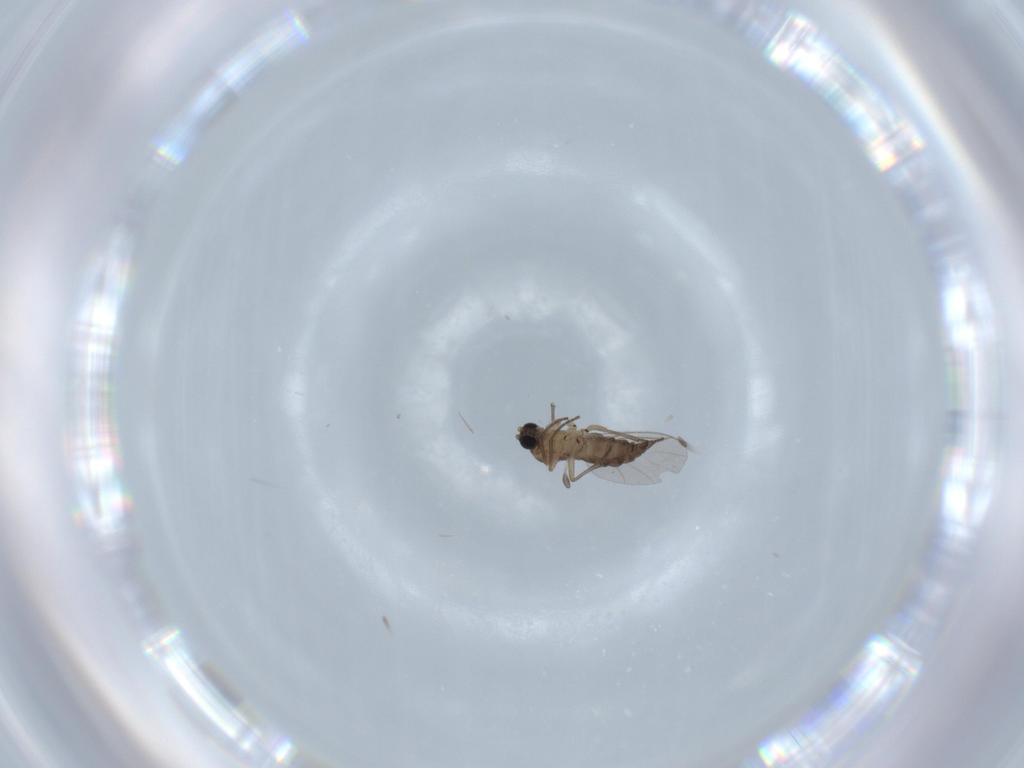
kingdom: Animalia
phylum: Arthropoda
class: Insecta
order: Diptera
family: Sciaridae
